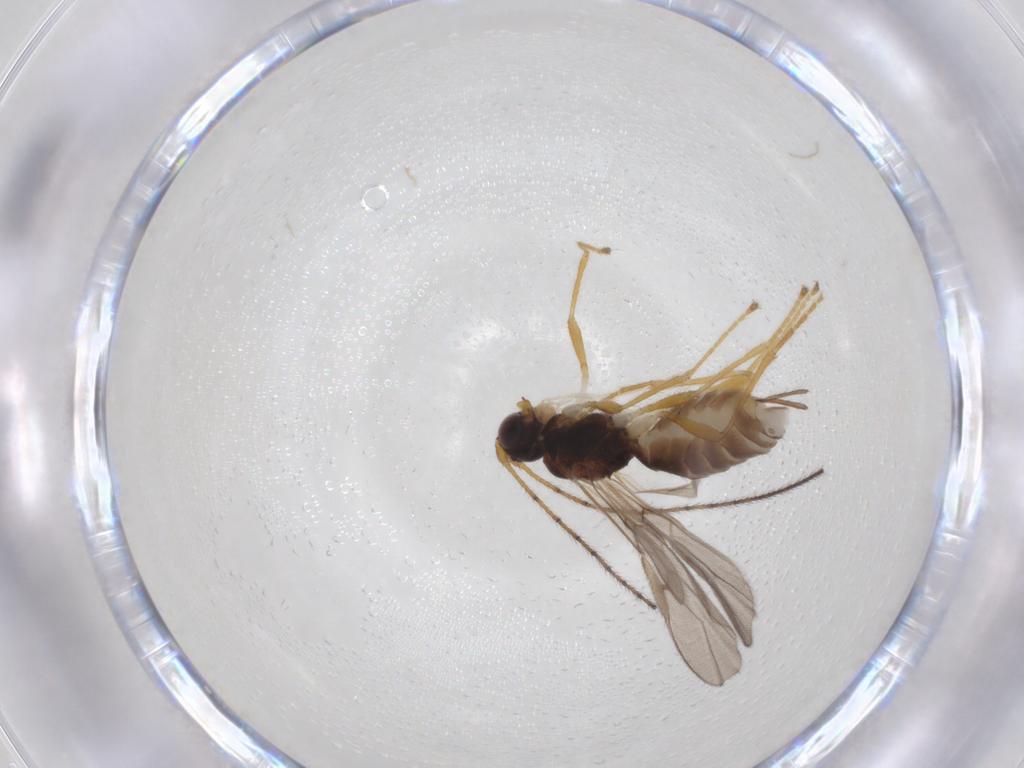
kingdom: Animalia
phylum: Arthropoda
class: Insecta
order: Hymenoptera
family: Braconidae
